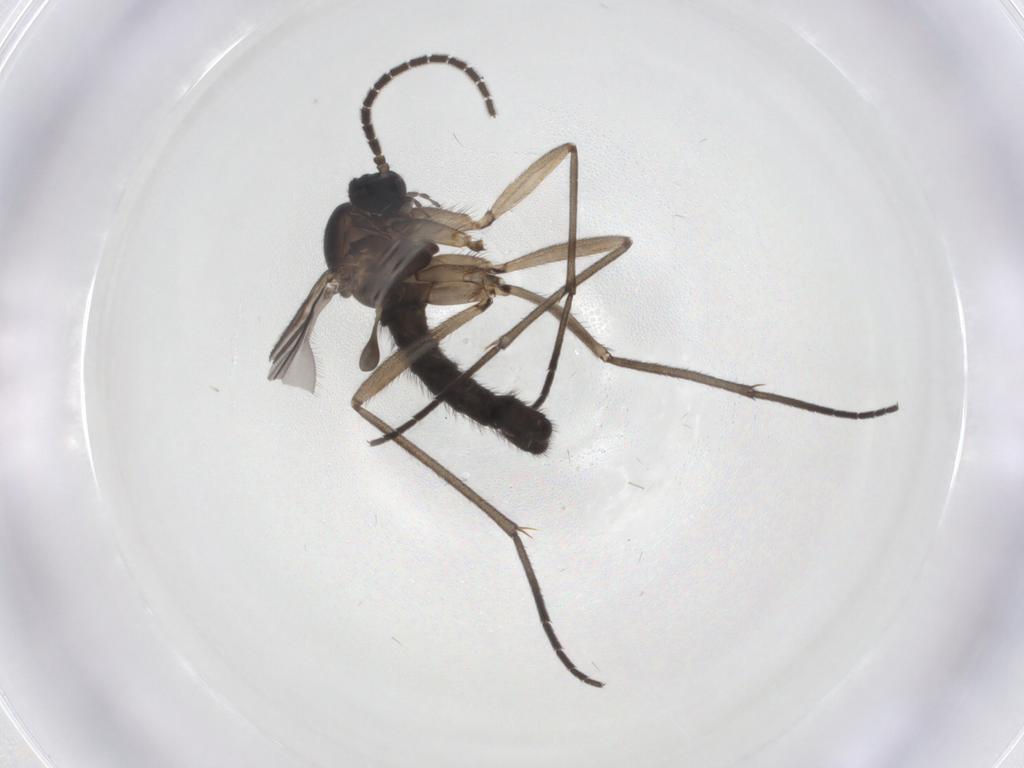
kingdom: Animalia
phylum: Arthropoda
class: Insecta
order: Diptera
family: Sciaridae
